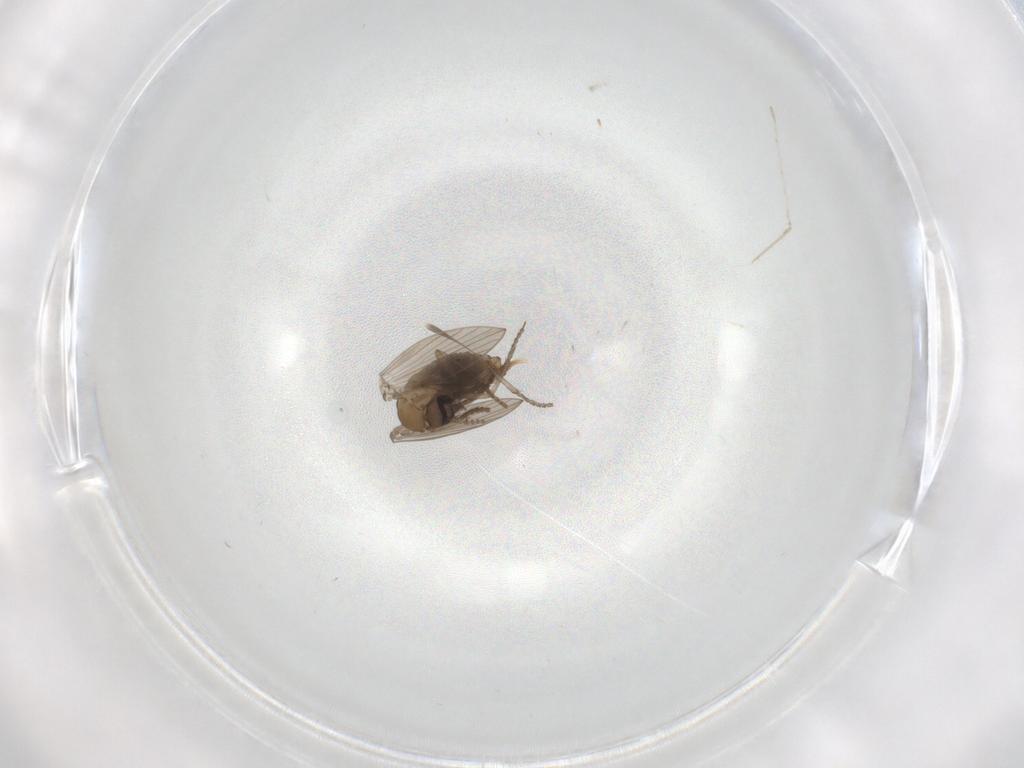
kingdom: Animalia
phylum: Arthropoda
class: Insecta
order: Diptera
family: Psychodidae
